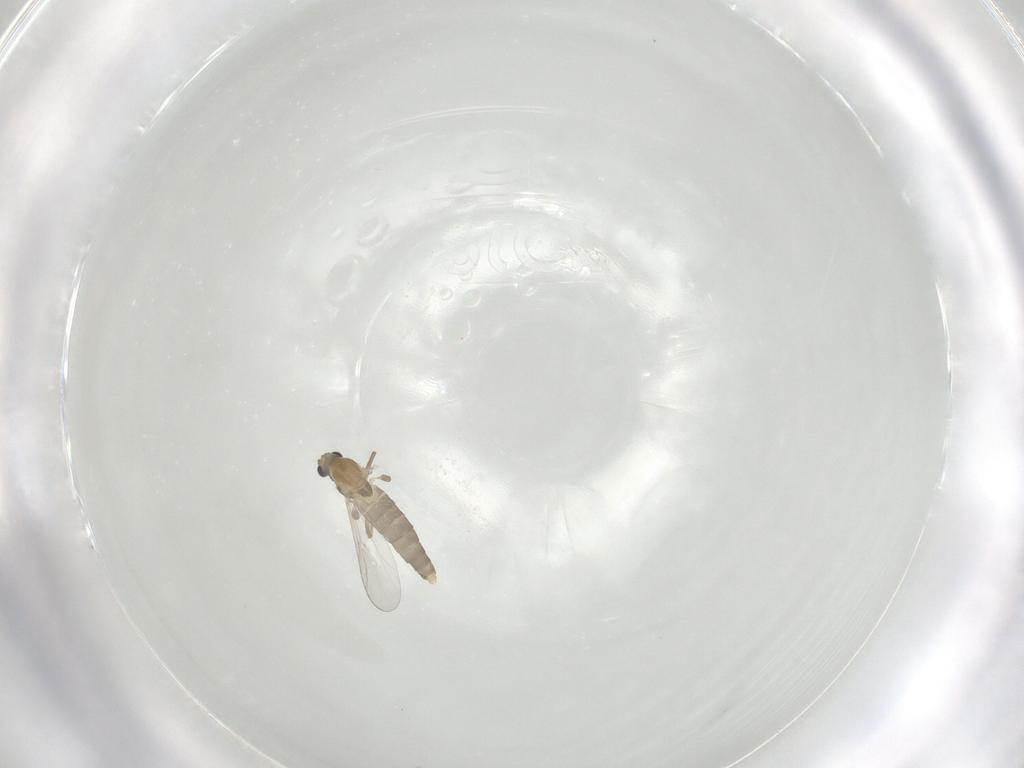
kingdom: Animalia
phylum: Arthropoda
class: Insecta
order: Diptera
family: Chironomidae
